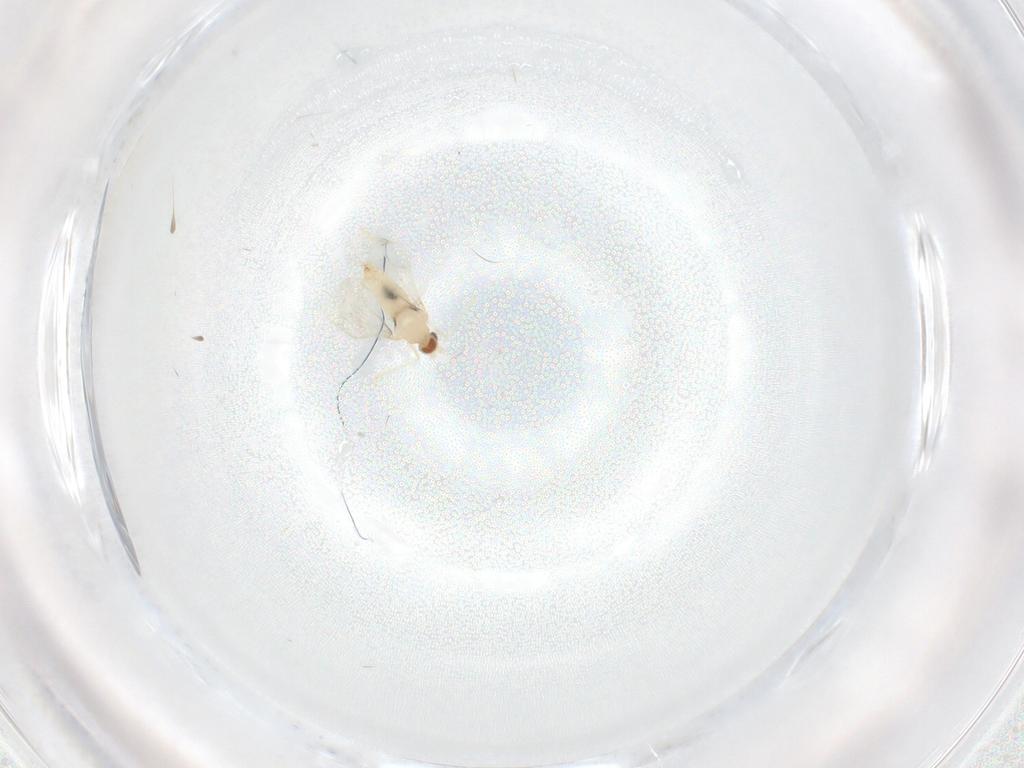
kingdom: Animalia
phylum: Arthropoda
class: Insecta
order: Diptera
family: Cecidomyiidae
